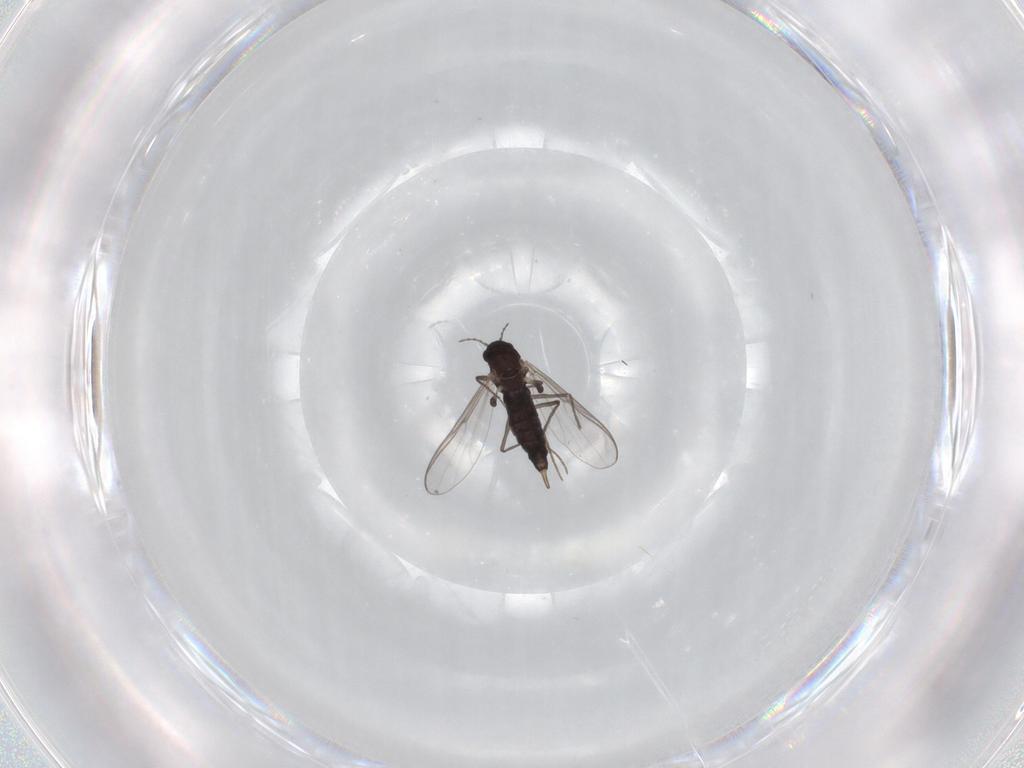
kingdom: Animalia
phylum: Arthropoda
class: Insecta
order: Diptera
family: Chironomidae
